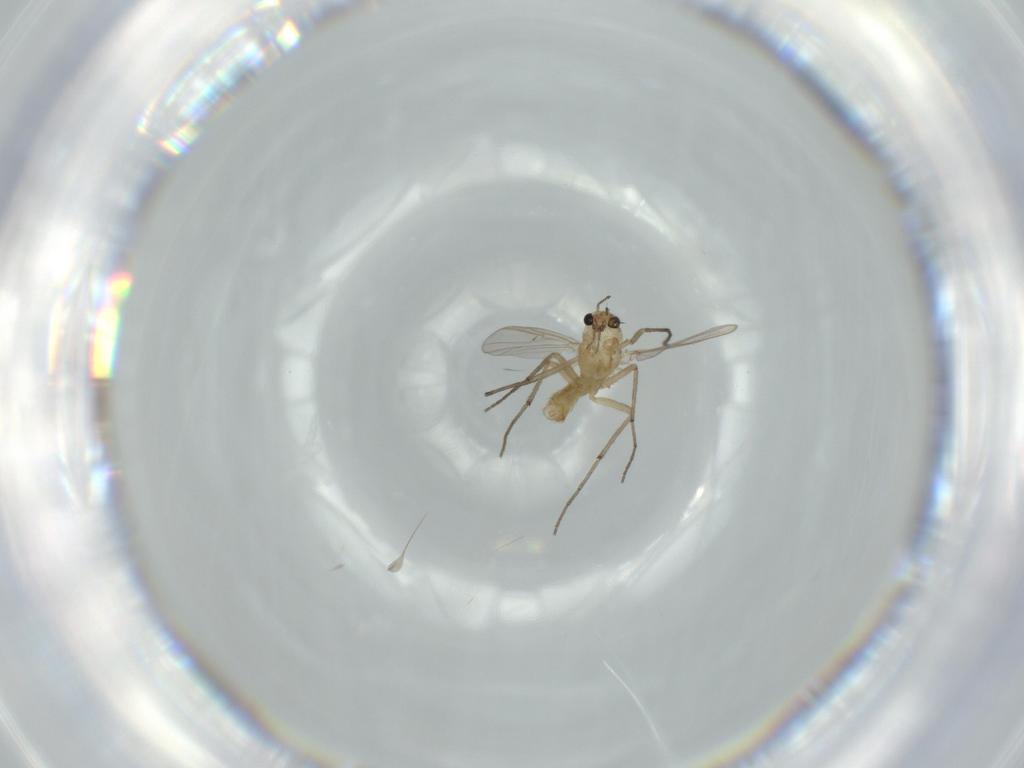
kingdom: Animalia
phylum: Arthropoda
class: Insecta
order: Diptera
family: Chironomidae
